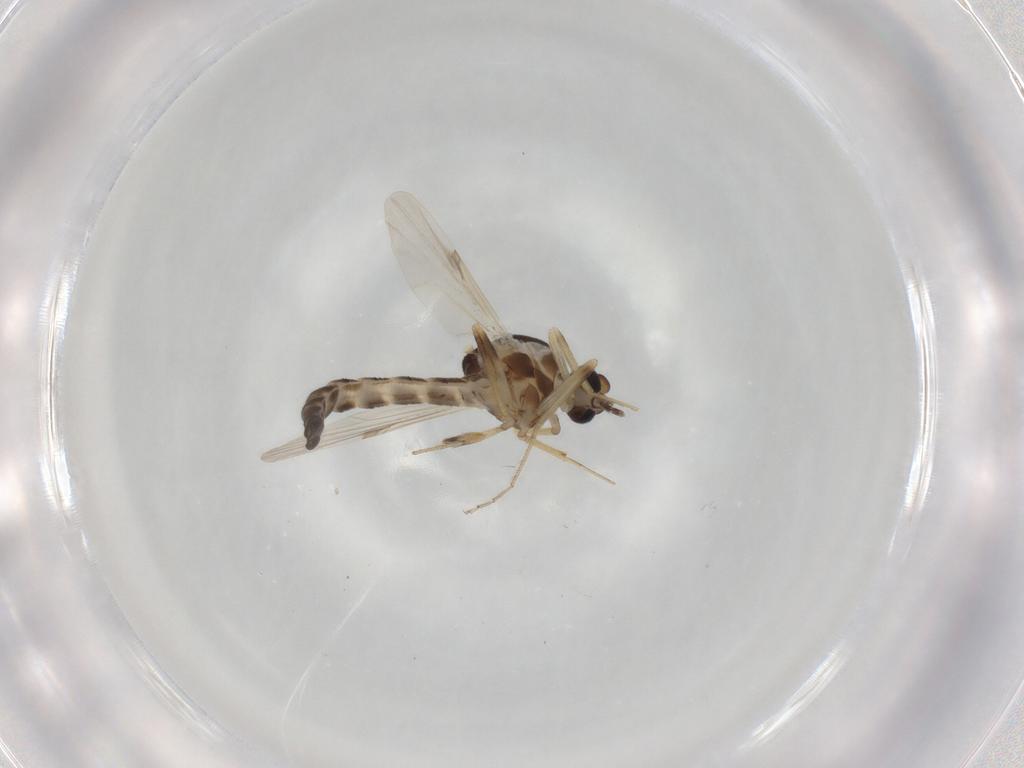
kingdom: Animalia
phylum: Arthropoda
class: Insecta
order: Diptera
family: Ceratopogonidae
